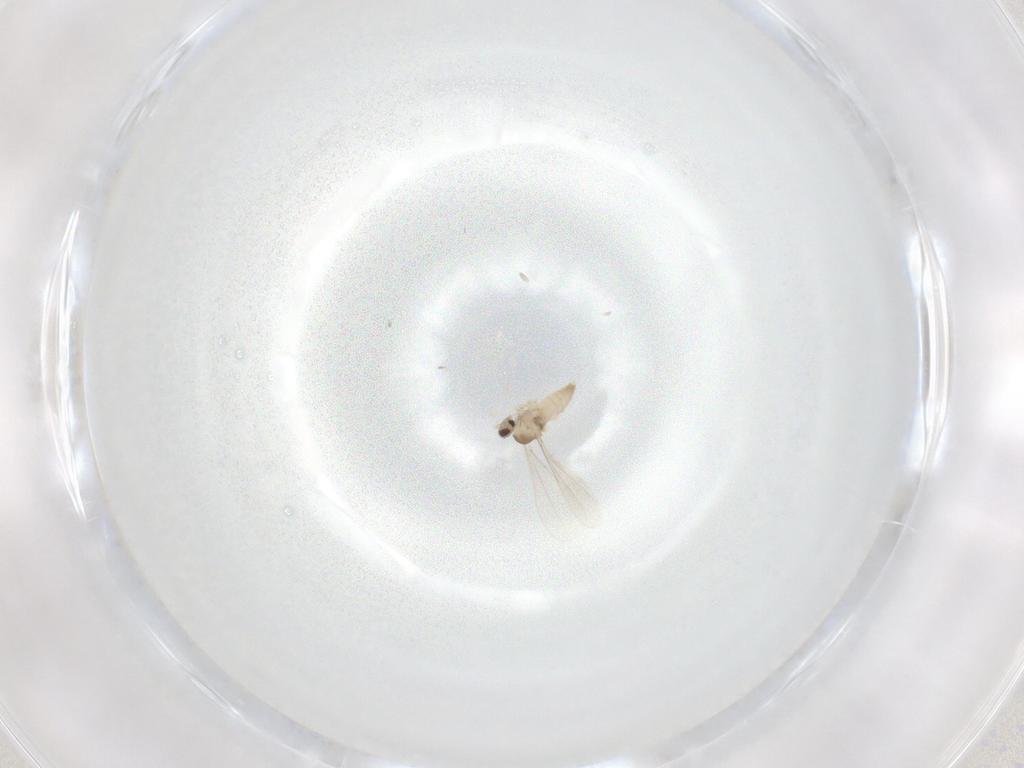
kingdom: Animalia
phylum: Arthropoda
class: Insecta
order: Diptera
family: Cecidomyiidae
